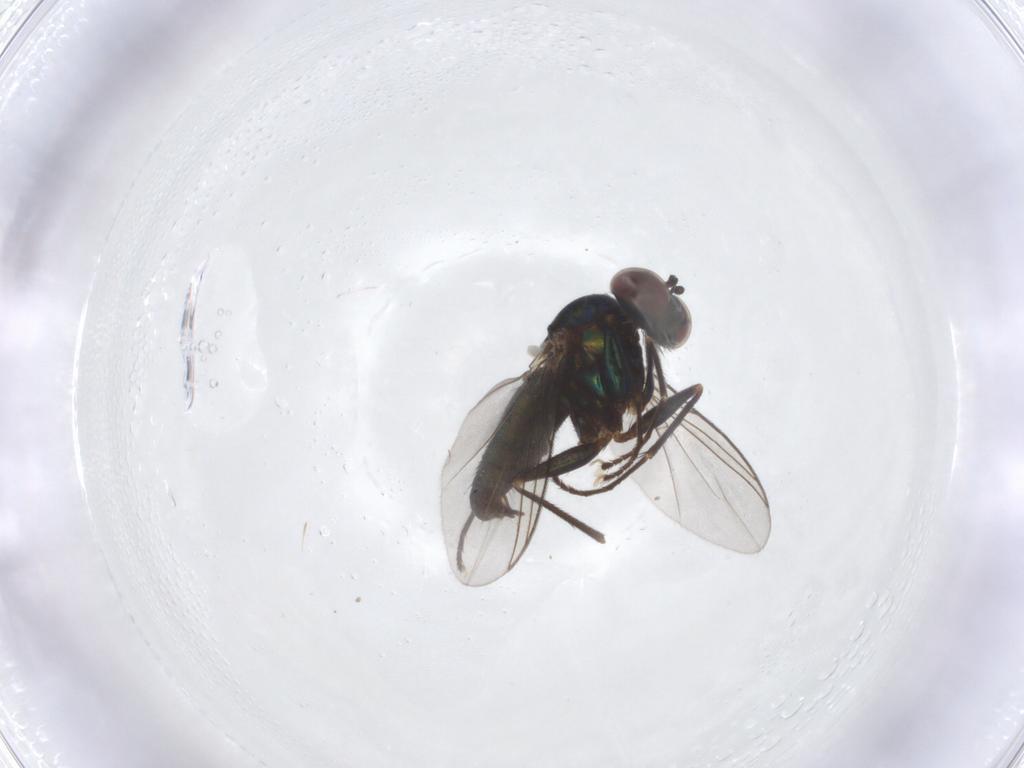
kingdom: Animalia
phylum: Arthropoda
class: Insecta
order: Diptera
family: Dolichopodidae
